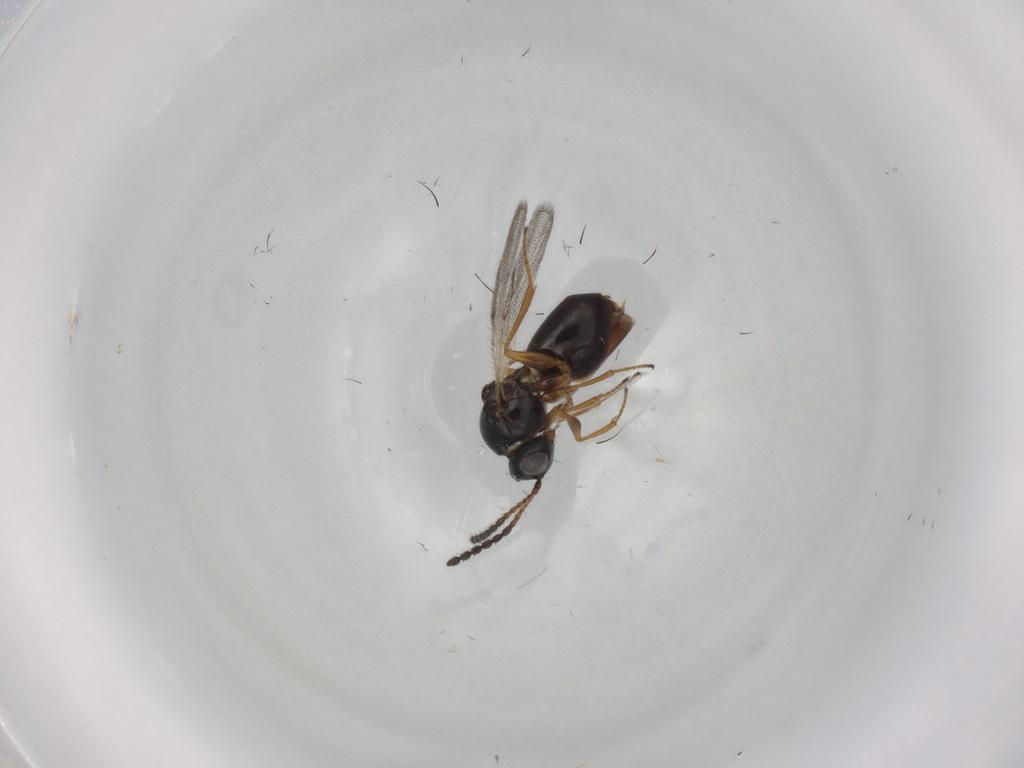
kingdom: Animalia
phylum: Arthropoda
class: Insecta
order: Hymenoptera
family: Figitidae
